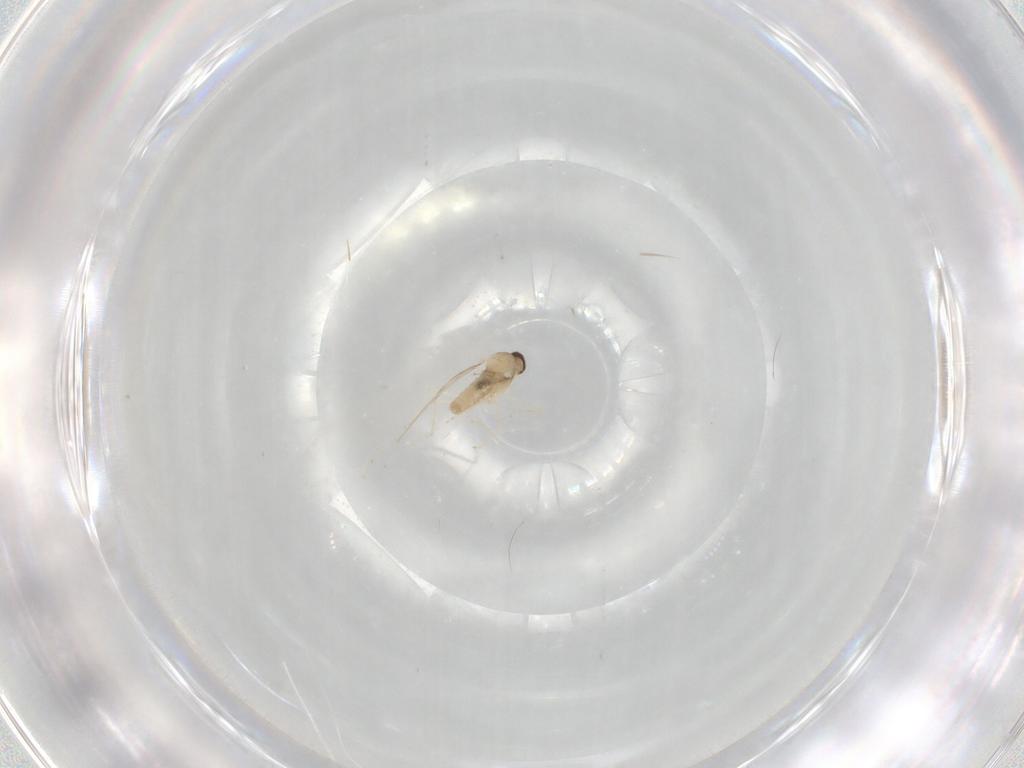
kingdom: Animalia
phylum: Arthropoda
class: Insecta
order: Diptera
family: Cecidomyiidae
